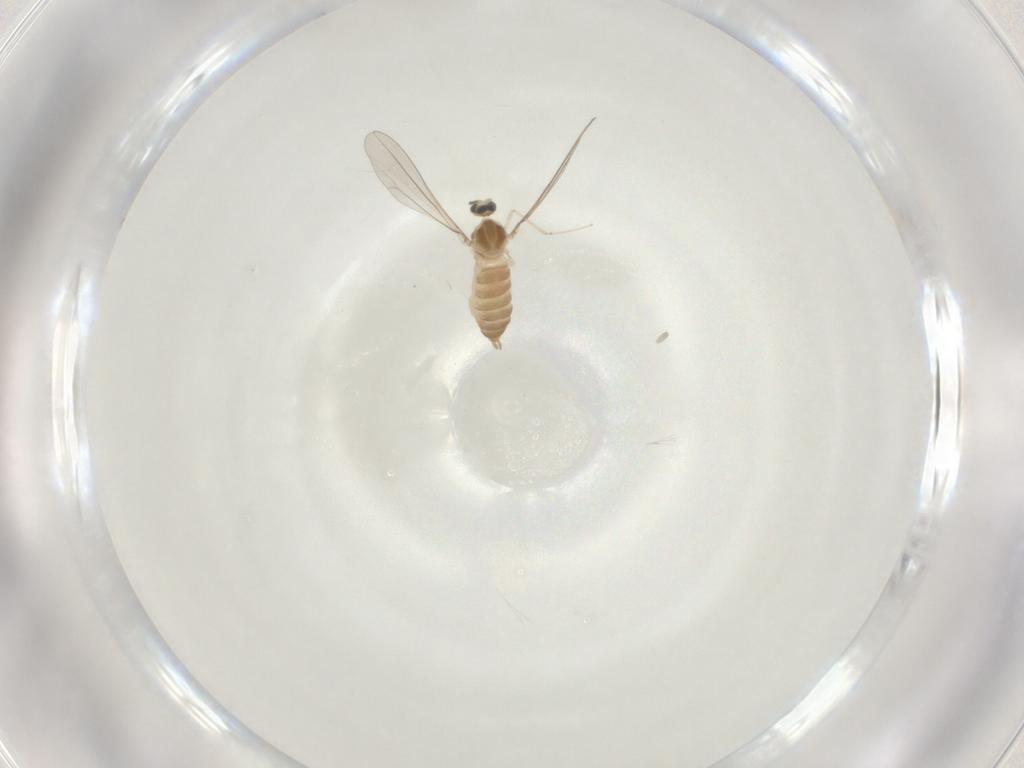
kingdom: Animalia
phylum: Arthropoda
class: Insecta
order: Diptera
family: Cecidomyiidae
